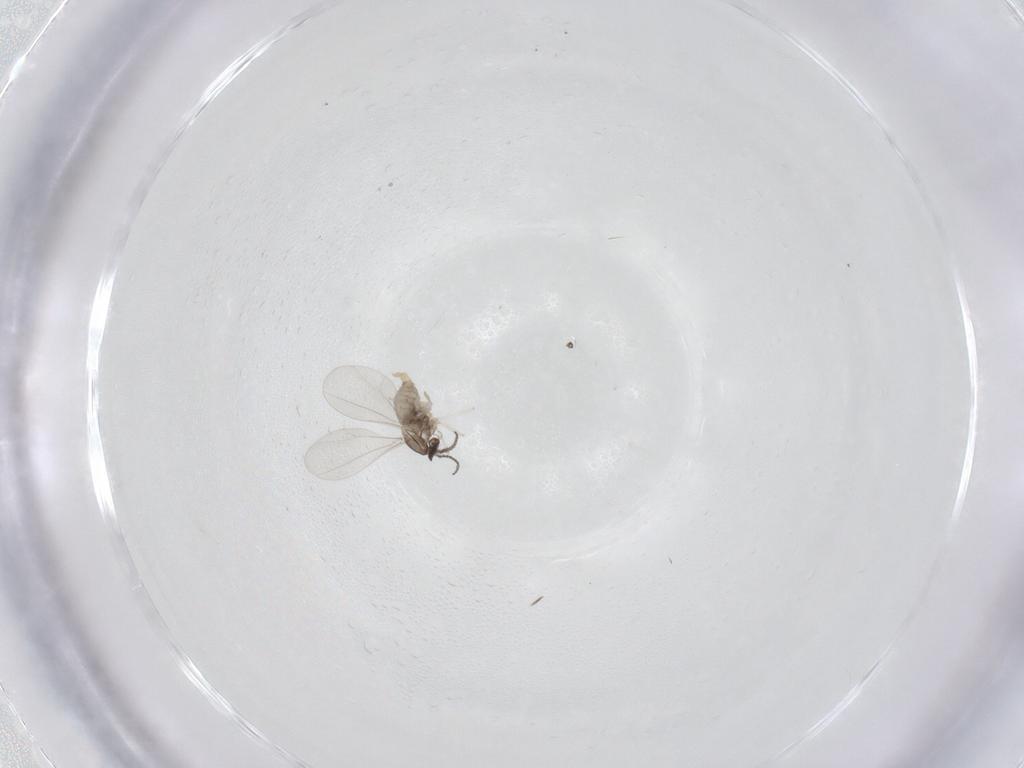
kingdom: Animalia
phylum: Arthropoda
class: Insecta
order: Diptera
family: Cecidomyiidae
